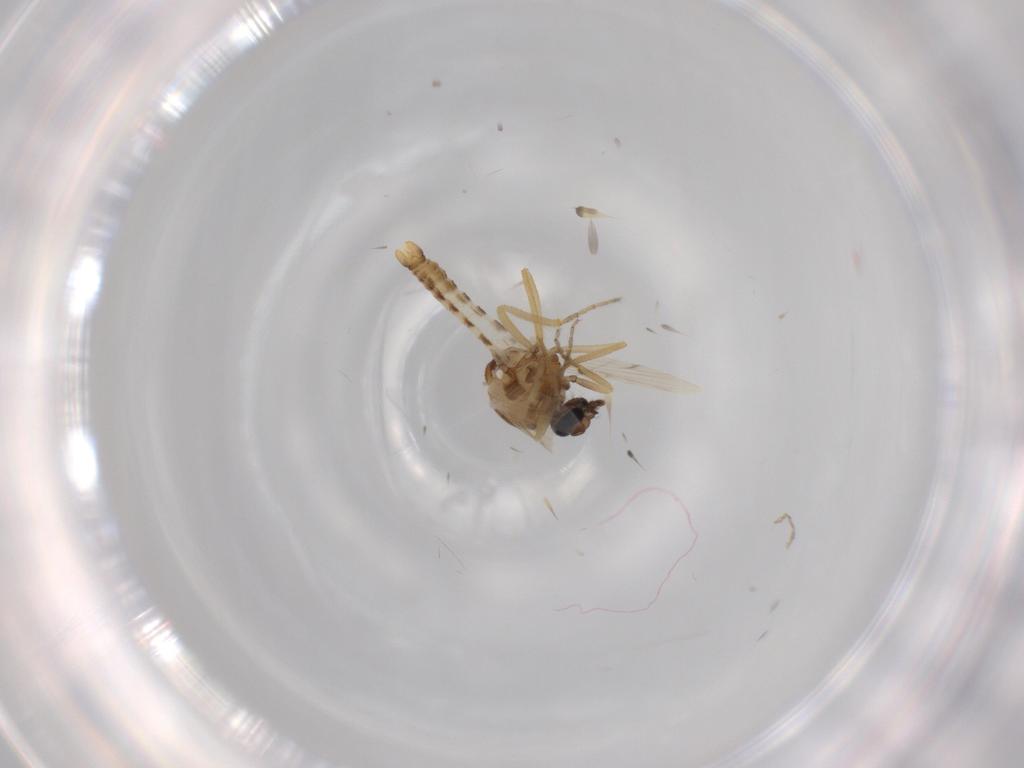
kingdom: Animalia
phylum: Arthropoda
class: Insecta
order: Diptera
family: Ceratopogonidae
